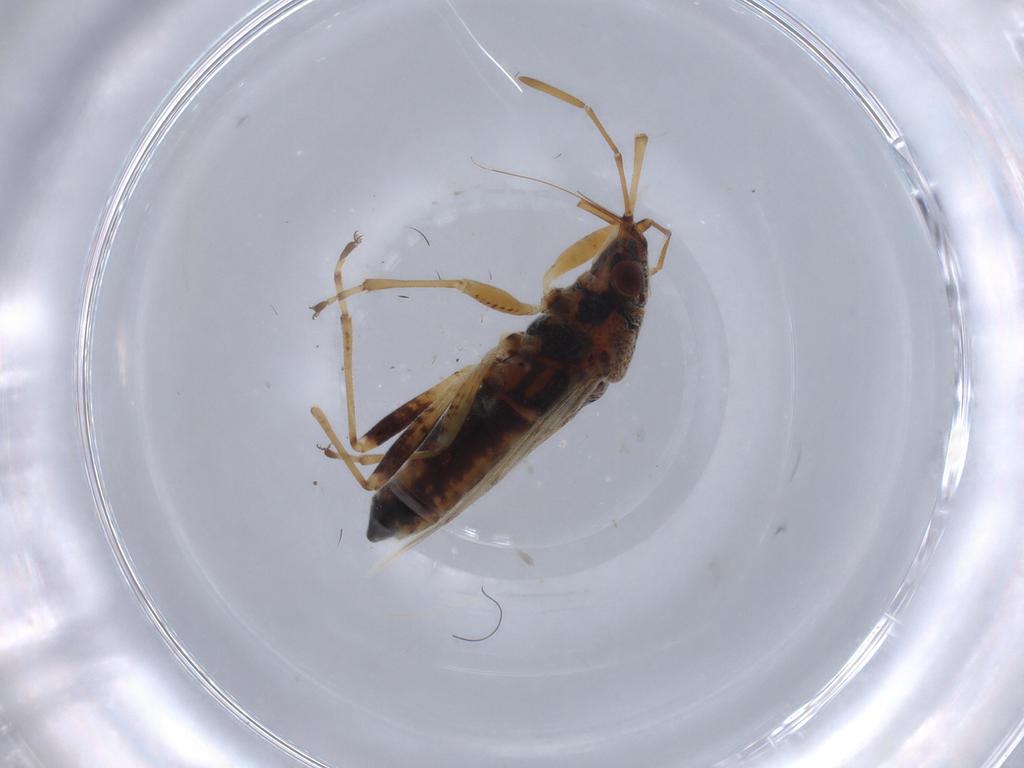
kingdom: Animalia
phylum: Arthropoda
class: Insecta
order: Hemiptera
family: Lygaeidae
